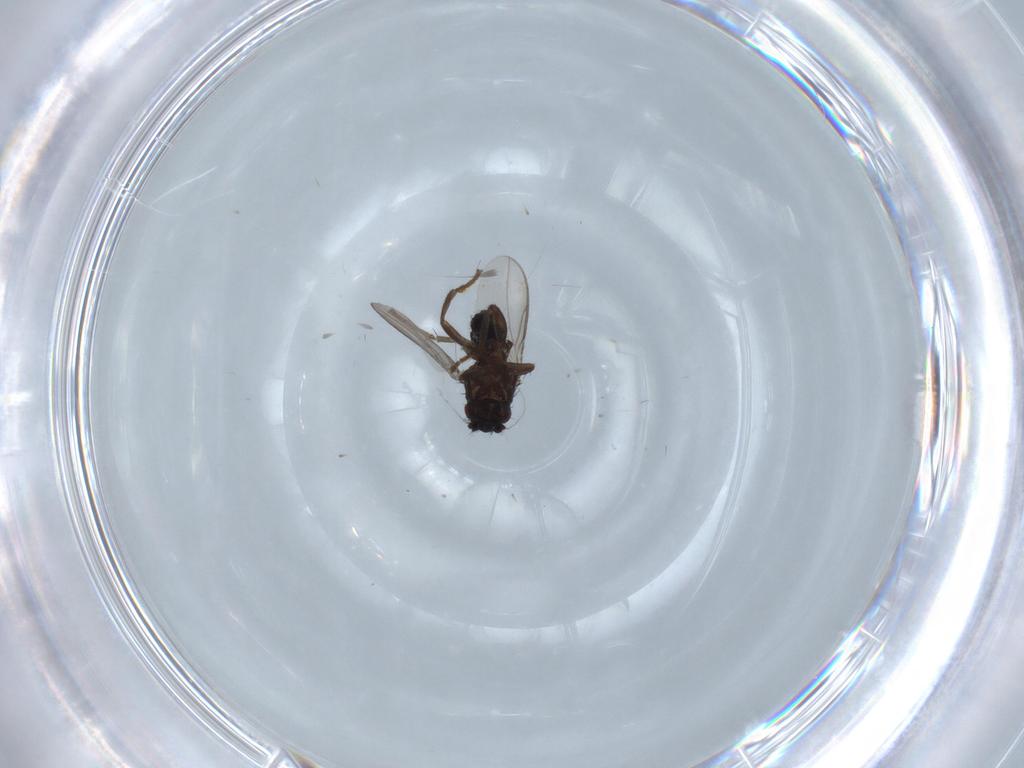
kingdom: Animalia
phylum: Arthropoda
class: Insecta
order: Diptera
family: Sphaeroceridae
